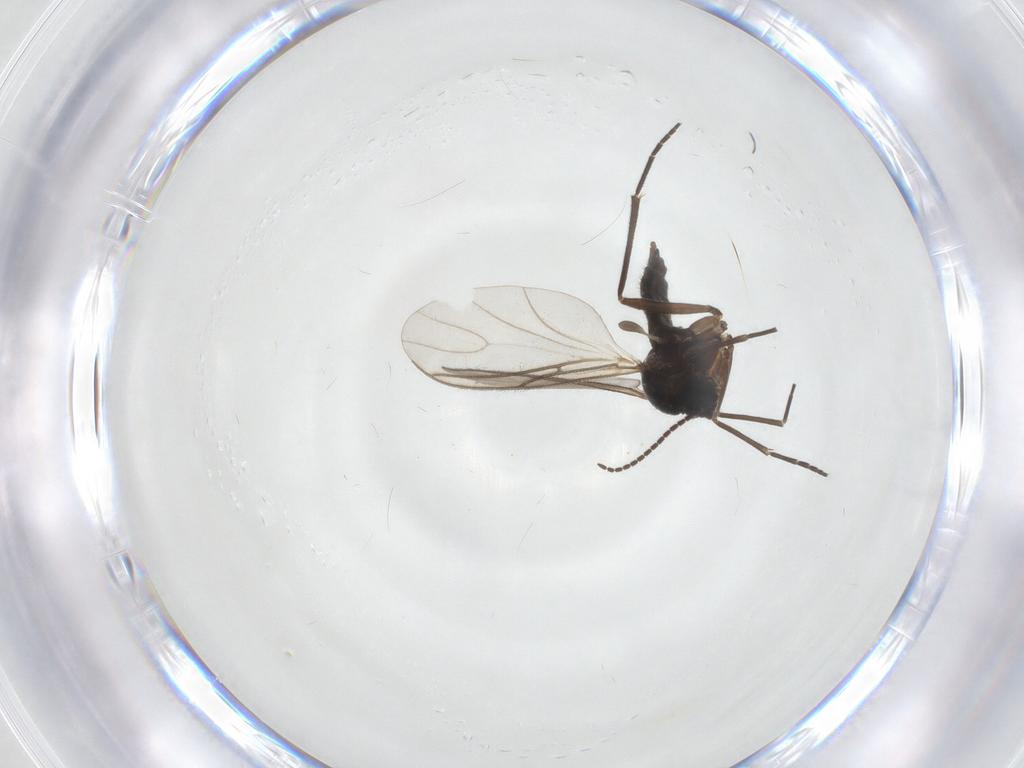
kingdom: Animalia
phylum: Arthropoda
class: Insecta
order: Diptera
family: Sciaridae
